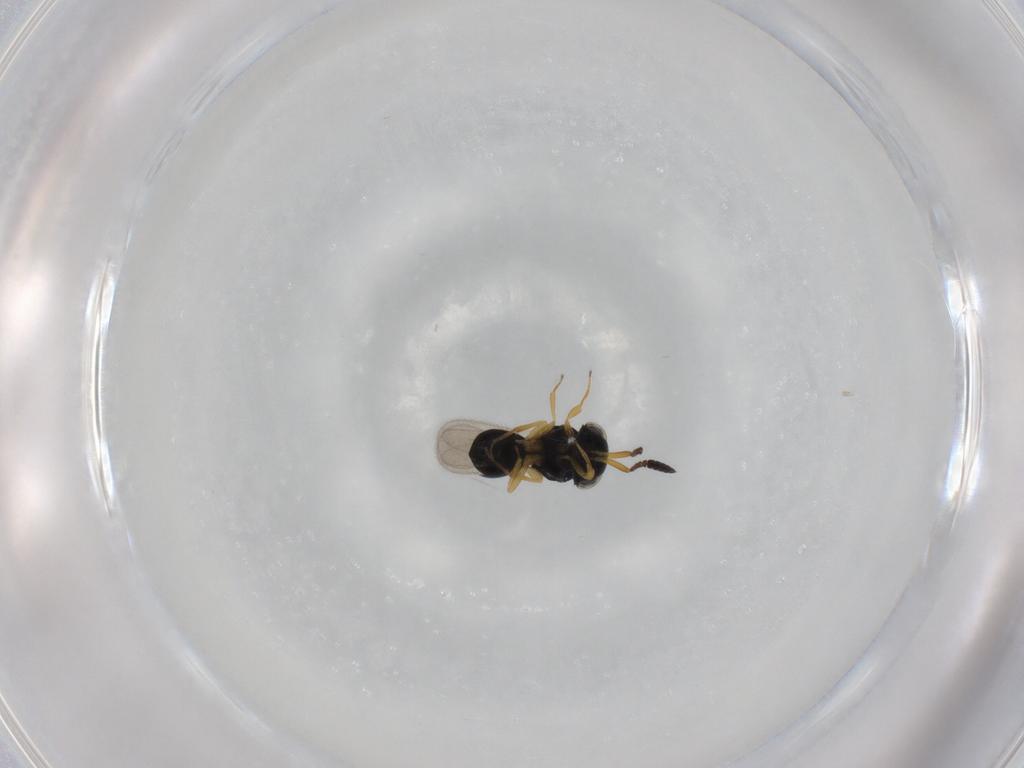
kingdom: Animalia
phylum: Arthropoda
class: Insecta
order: Hymenoptera
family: Scelionidae
